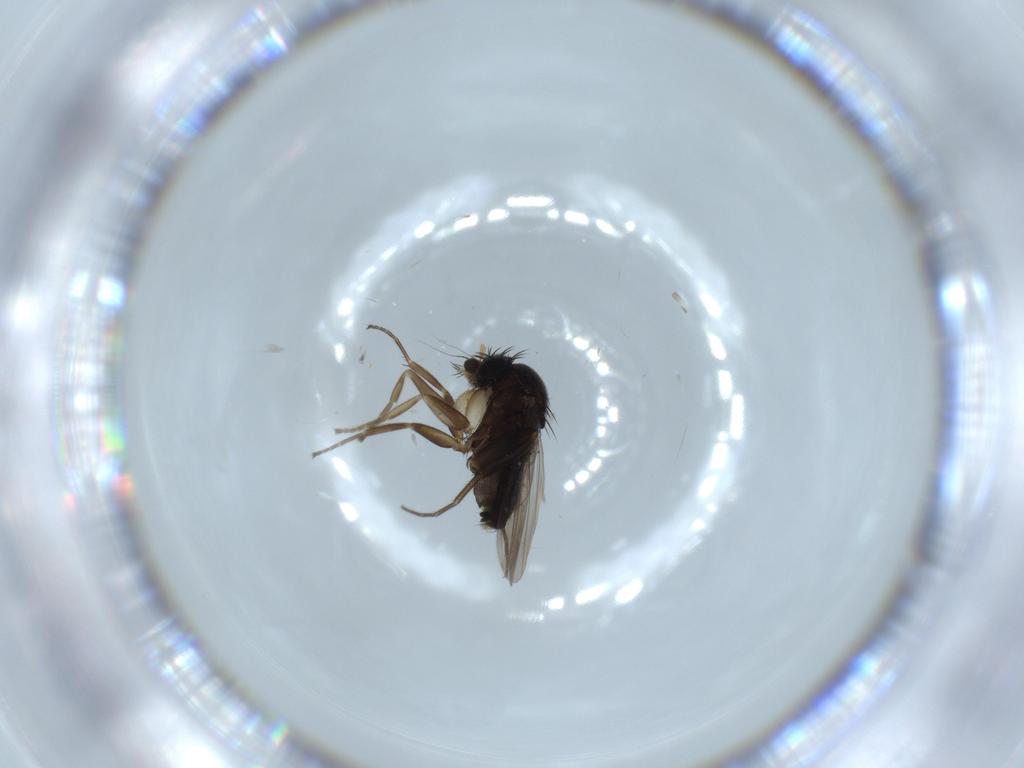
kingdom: Animalia
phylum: Arthropoda
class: Insecta
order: Diptera
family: Phoridae
